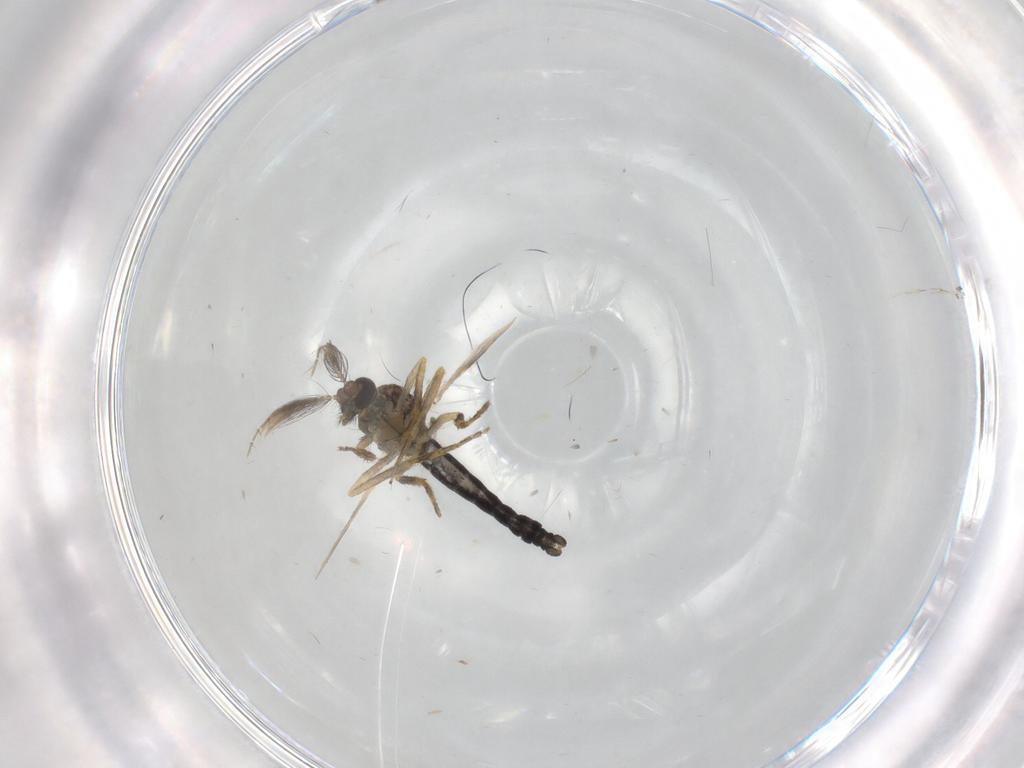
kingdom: Animalia
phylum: Arthropoda
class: Insecta
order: Diptera
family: Ceratopogonidae
